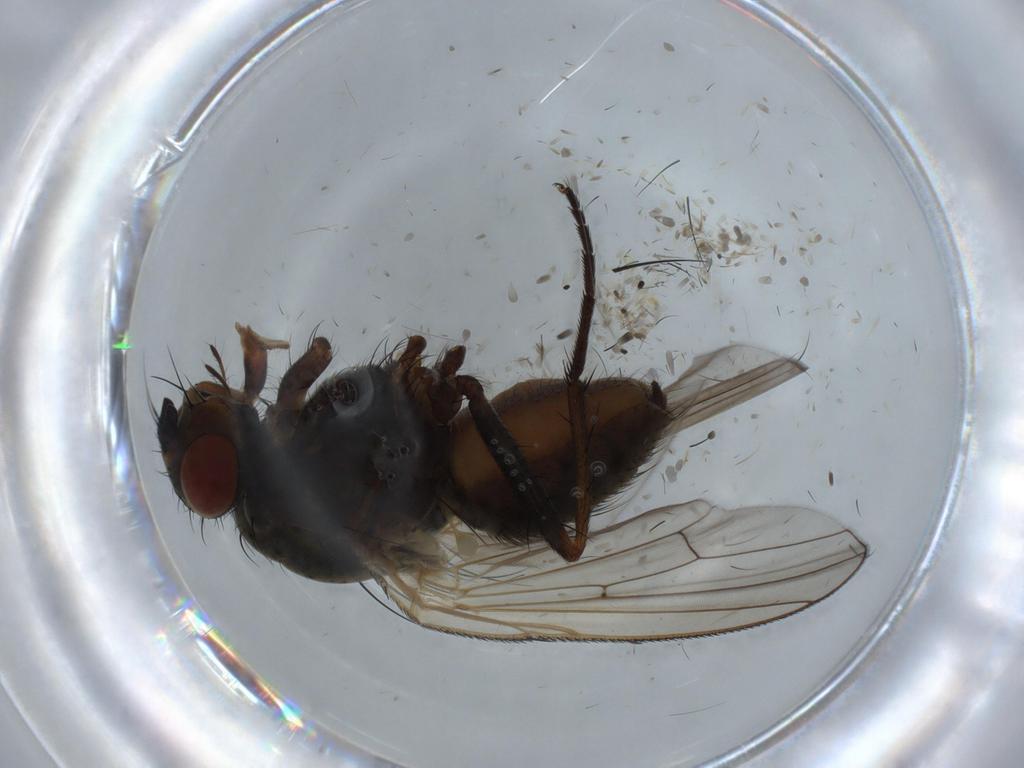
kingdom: Animalia
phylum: Arthropoda
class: Insecta
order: Diptera
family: Anthomyiidae
